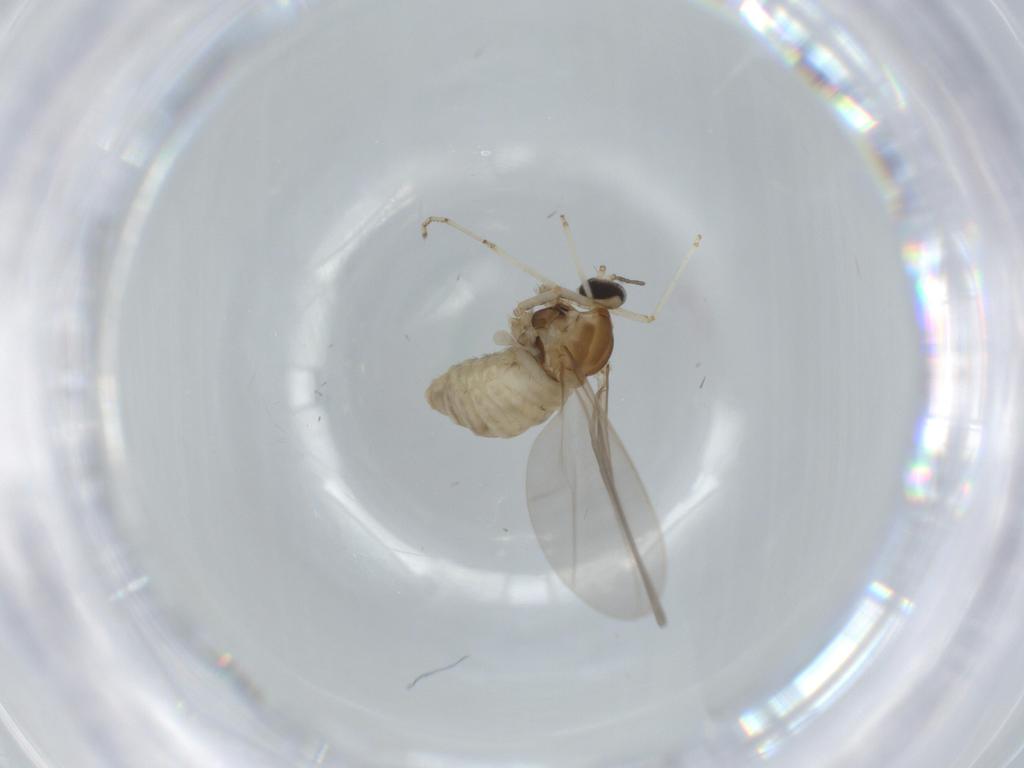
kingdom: Animalia
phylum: Arthropoda
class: Insecta
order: Diptera
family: Cecidomyiidae
